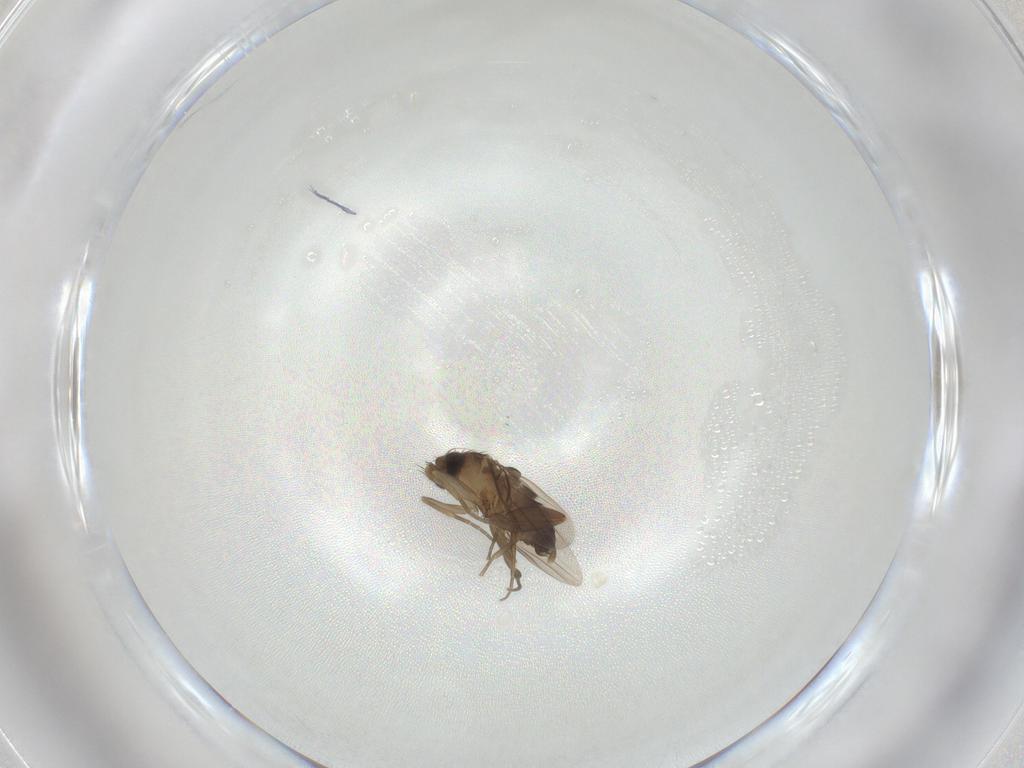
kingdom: Animalia
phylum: Arthropoda
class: Insecta
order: Diptera
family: Phoridae
